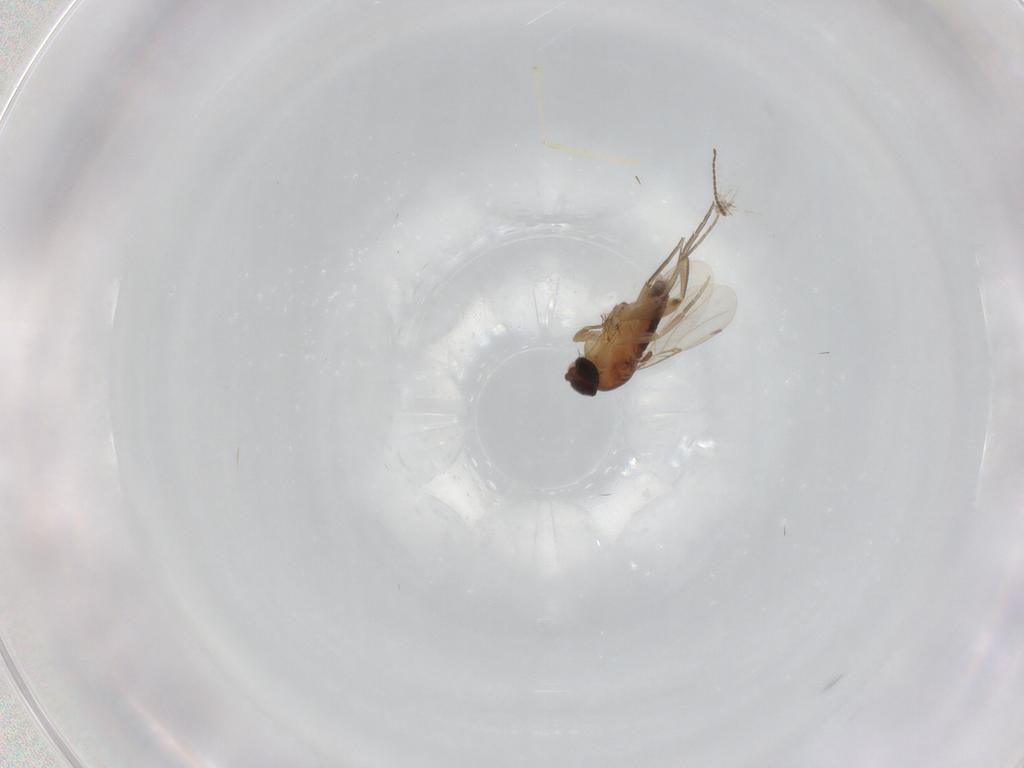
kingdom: Animalia
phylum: Arthropoda
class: Insecta
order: Diptera
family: Phoridae
